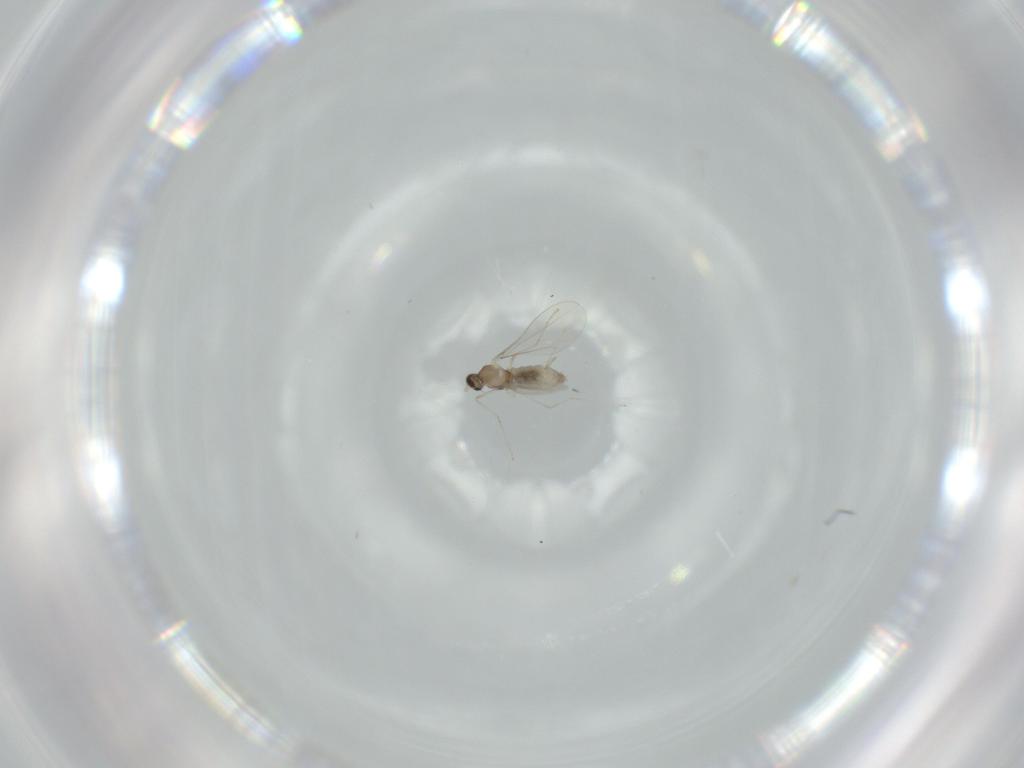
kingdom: Animalia
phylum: Arthropoda
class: Insecta
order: Diptera
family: Cecidomyiidae
